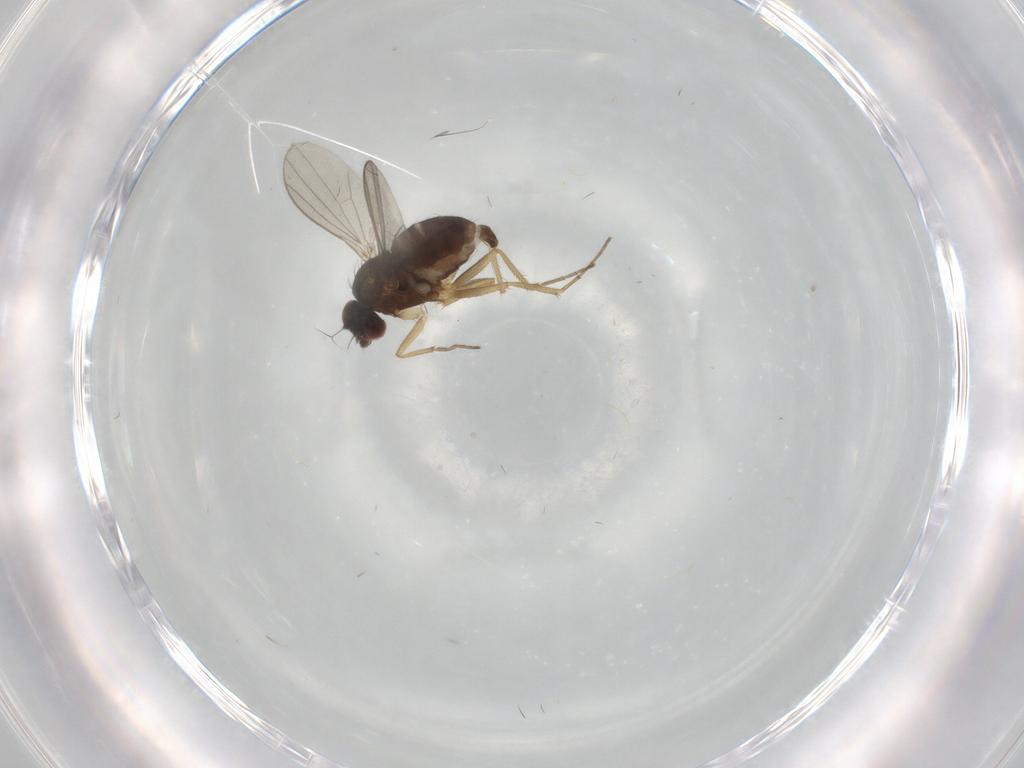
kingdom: Animalia
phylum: Arthropoda
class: Insecta
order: Diptera
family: Dolichopodidae
